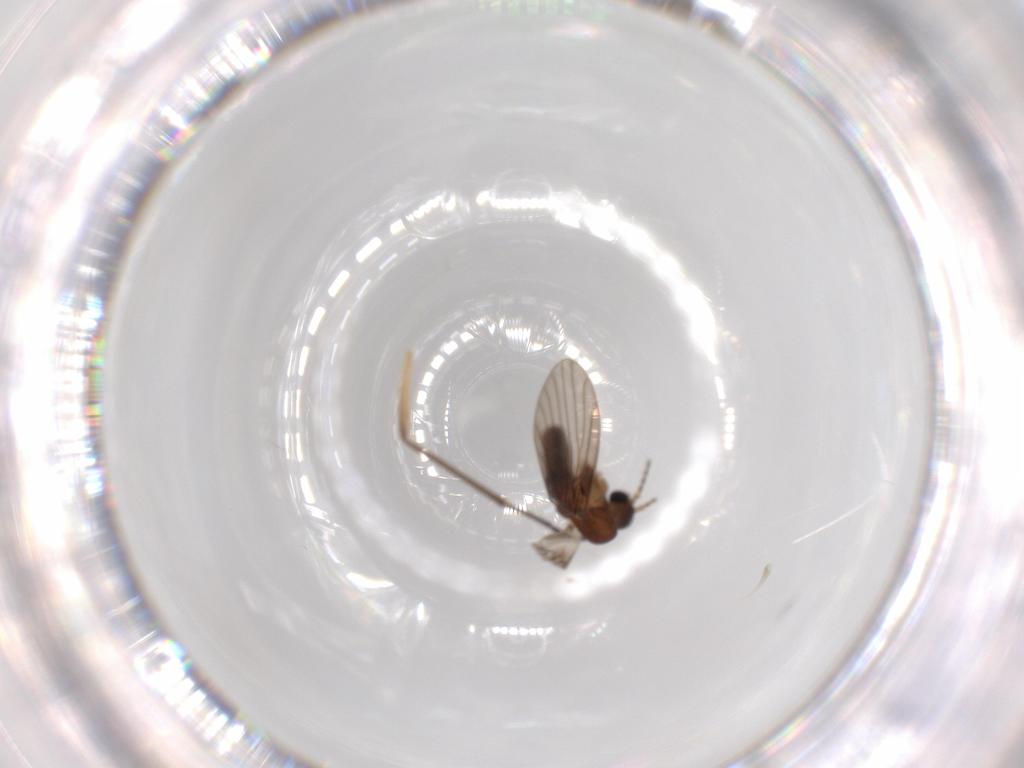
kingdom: Animalia
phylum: Arthropoda
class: Insecta
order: Diptera
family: Psychodidae
